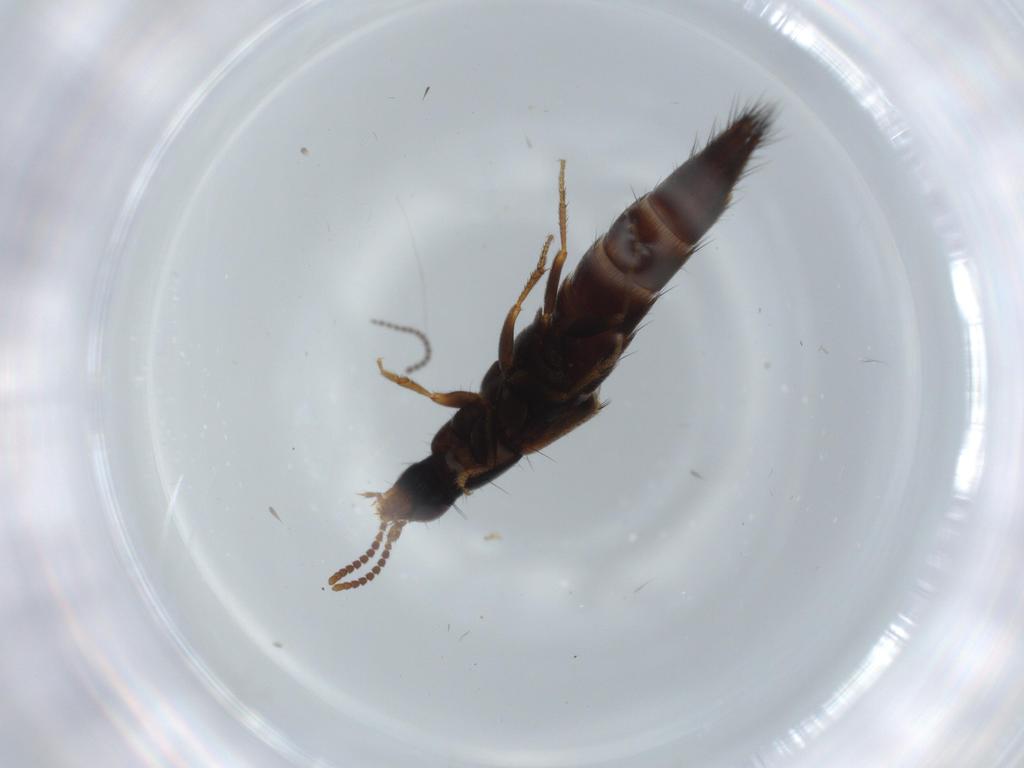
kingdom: Animalia
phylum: Arthropoda
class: Insecta
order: Coleoptera
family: Staphylinidae
